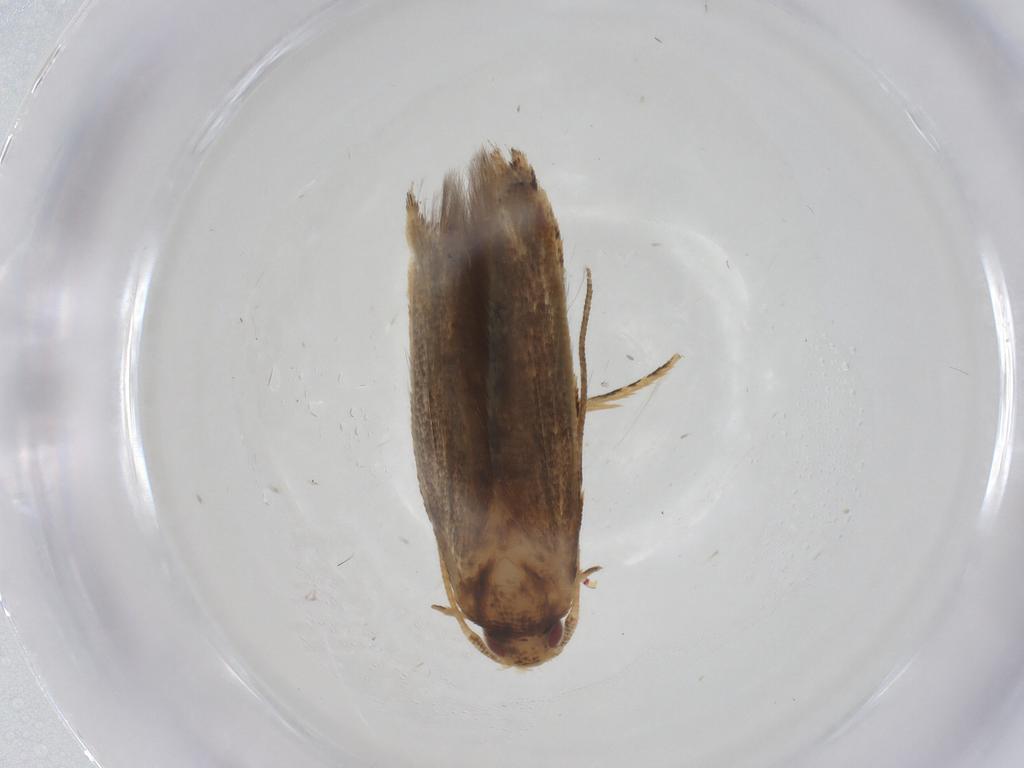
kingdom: Animalia
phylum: Arthropoda
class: Insecta
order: Lepidoptera
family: Momphidae
